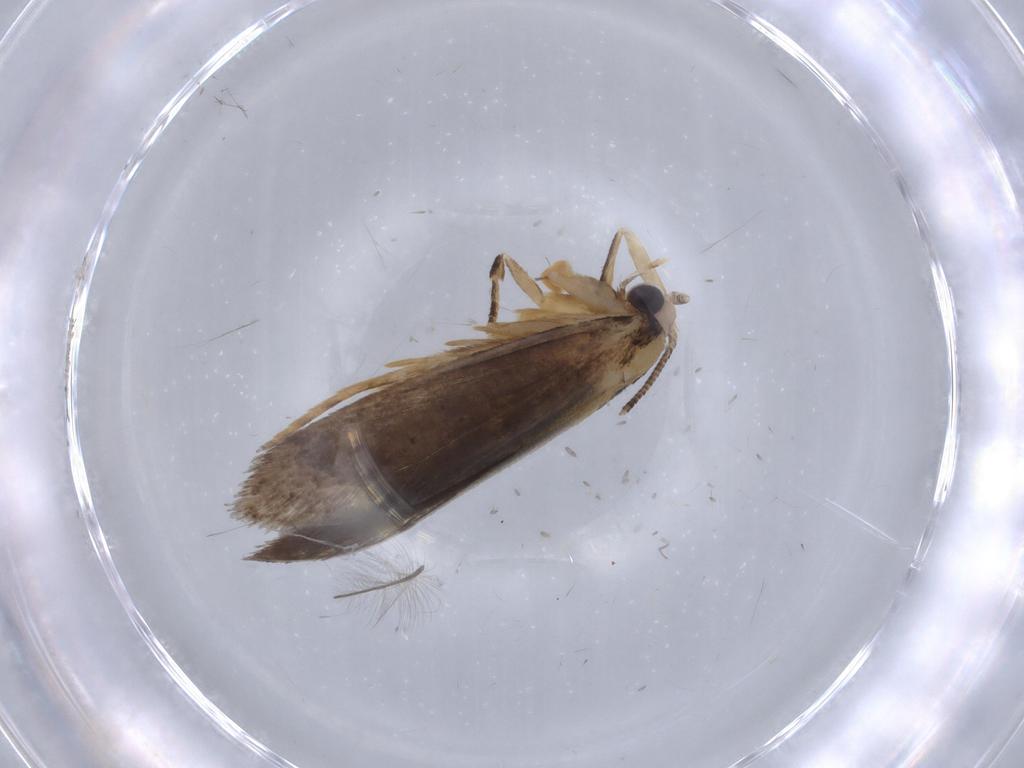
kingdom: Animalia
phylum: Arthropoda
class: Insecta
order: Lepidoptera
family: Tineidae
